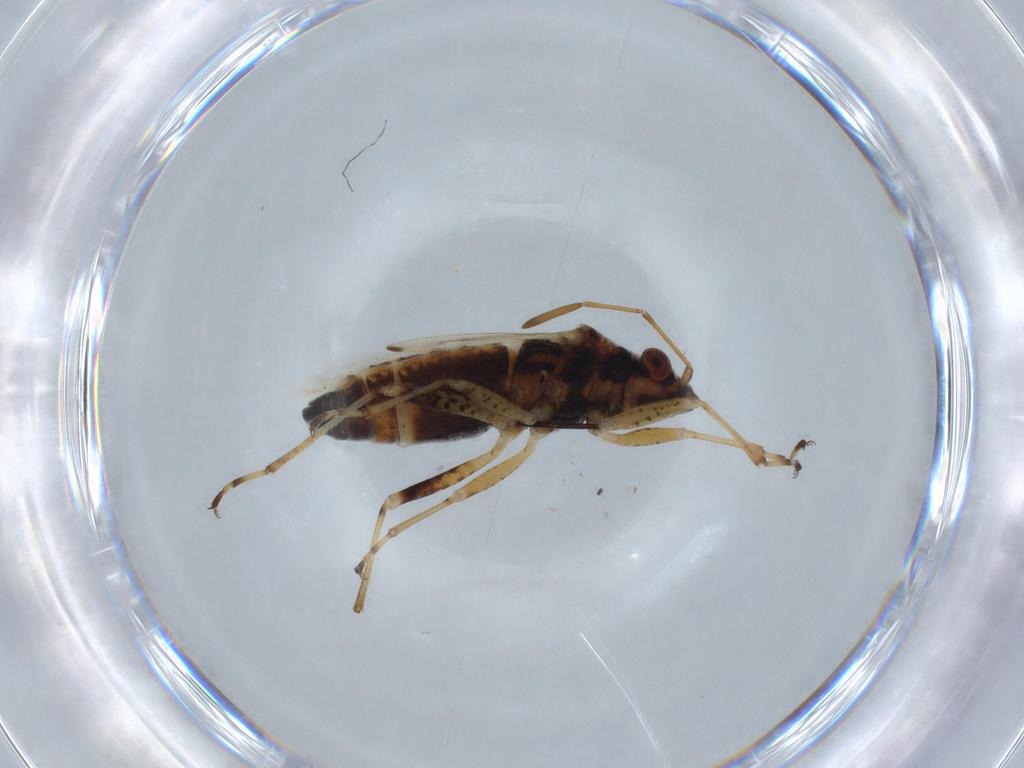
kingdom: Animalia
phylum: Arthropoda
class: Insecta
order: Hemiptera
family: Lygaeidae
